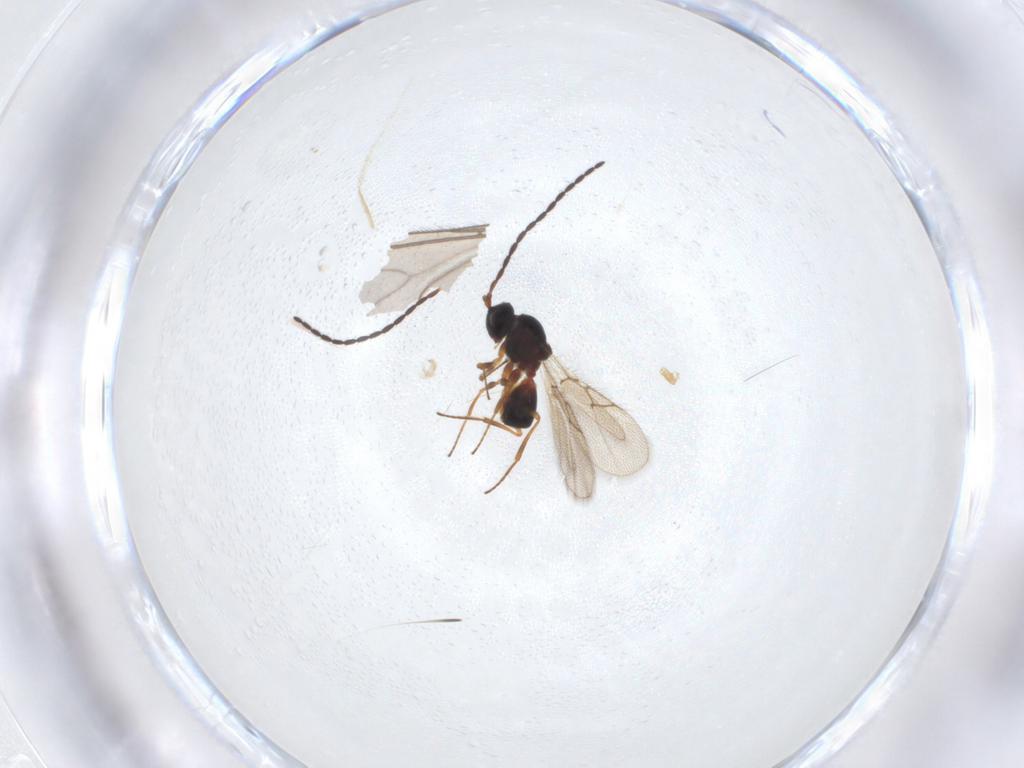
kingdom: Animalia
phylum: Arthropoda
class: Insecta
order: Hymenoptera
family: Figitidae
